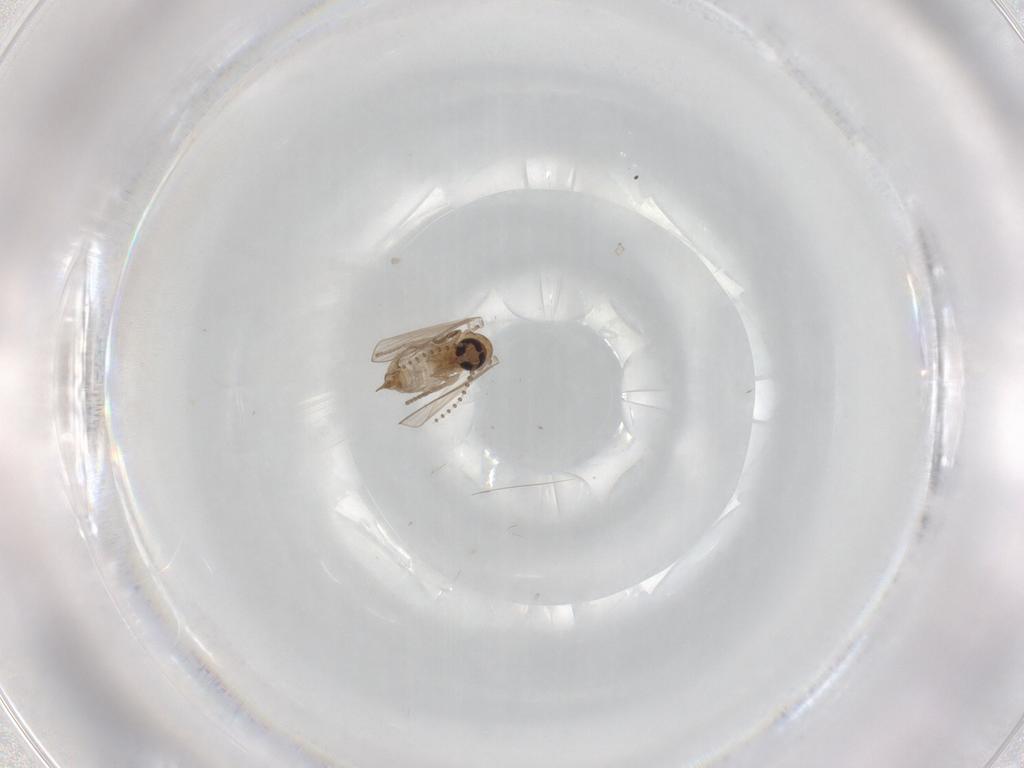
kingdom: Animalia
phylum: Arthropoda
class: Insecta
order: Diptera
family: Psychodidae
